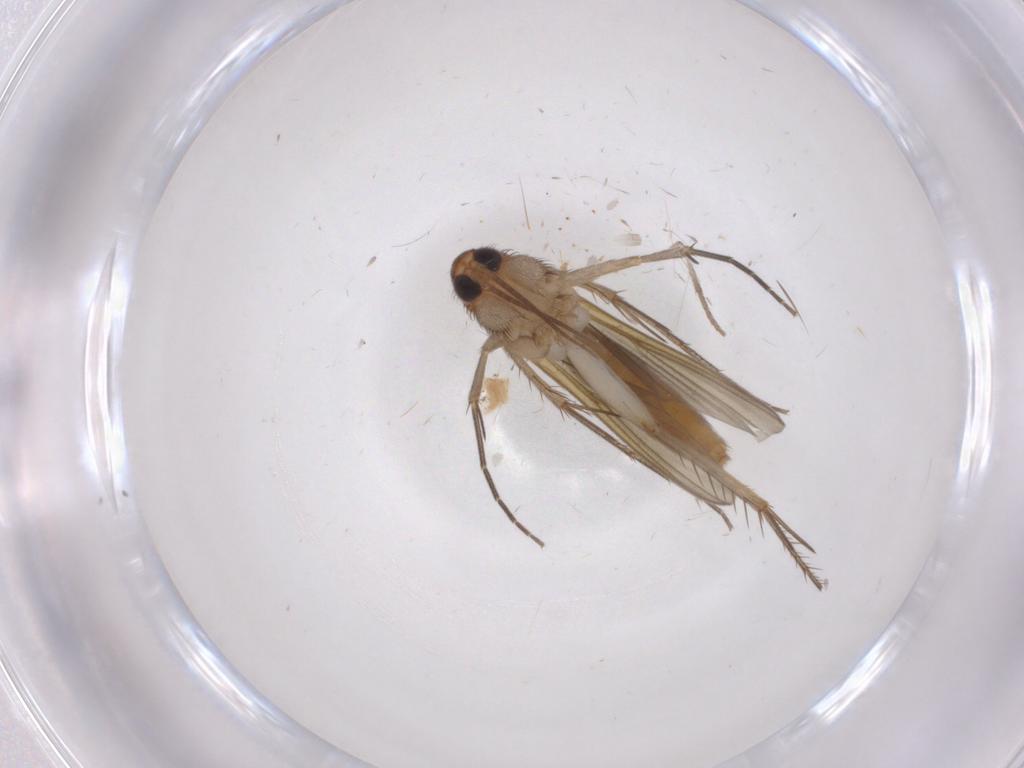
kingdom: Animalia
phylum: Arthropoda
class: Insecta
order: Diptera
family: Mycetophilidae
